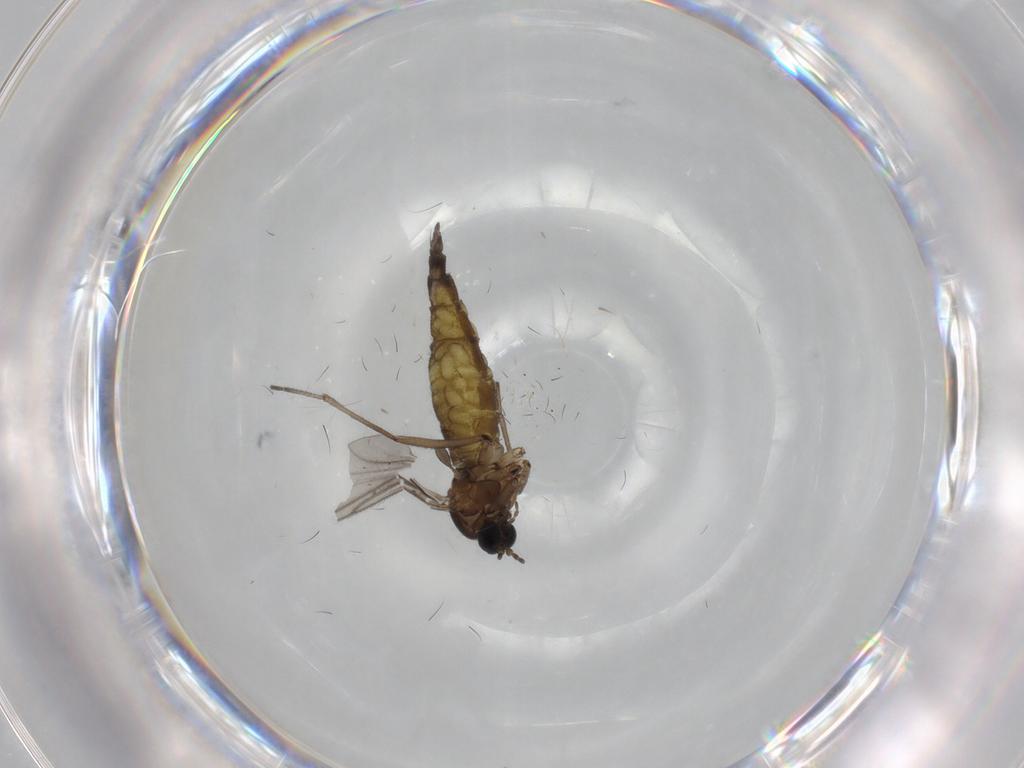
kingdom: Animalia
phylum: Arthropoda
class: Insecta
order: Diptera
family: Sciaridae
